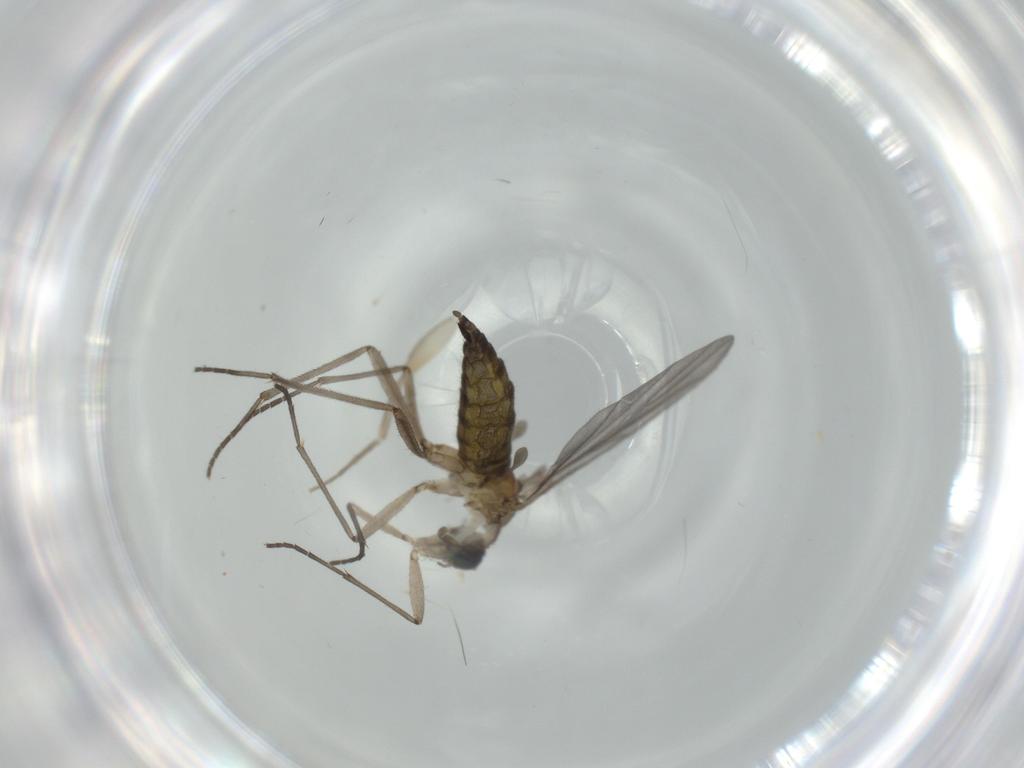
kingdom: Animalia
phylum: Arthropoda
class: Insecta
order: Diptera
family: Sciaridae
